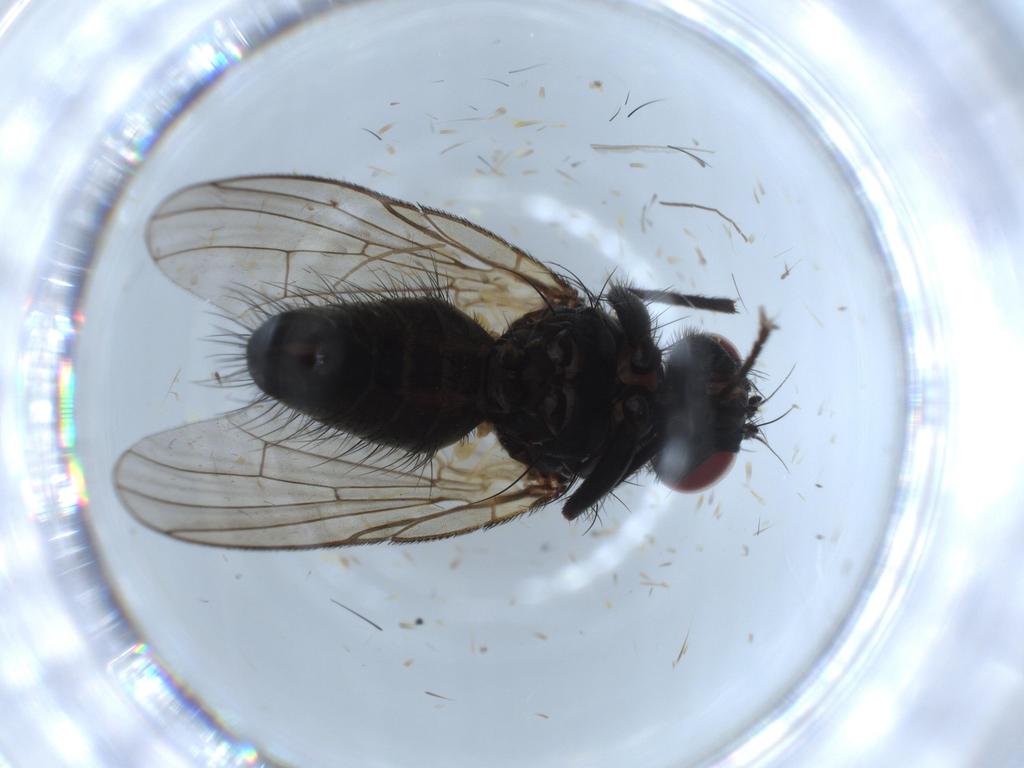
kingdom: Animalia
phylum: Arthropoda
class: Insecta
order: Diptera
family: Muscidae
